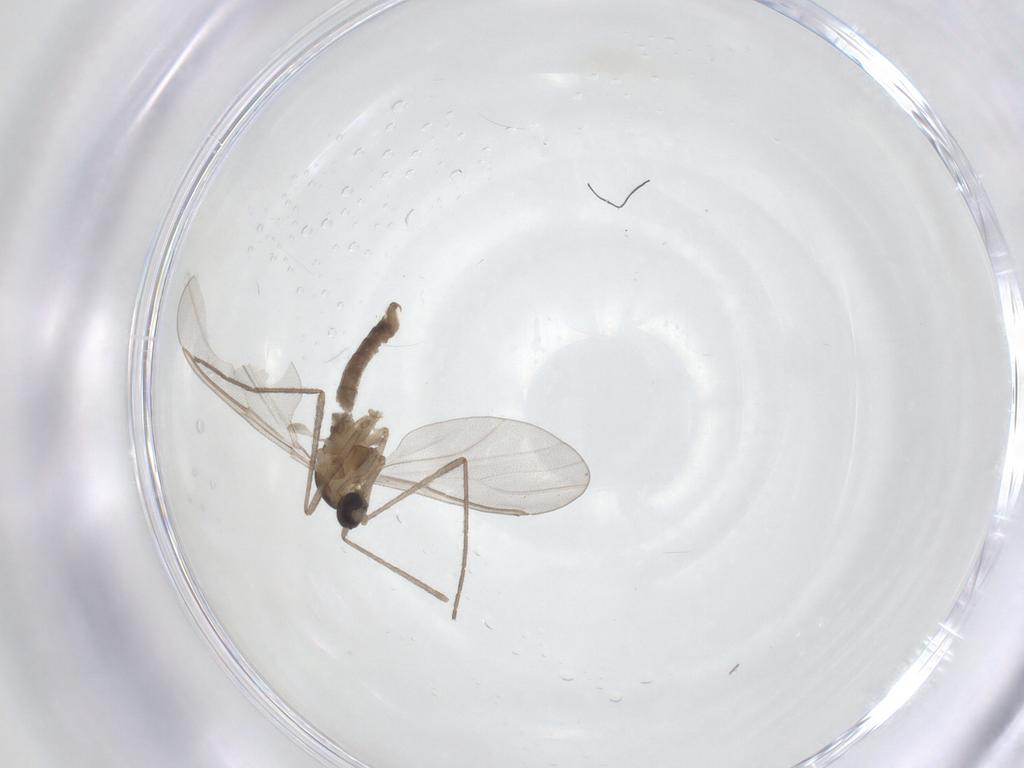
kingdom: Animalia
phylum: Arthropoda
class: Insecta
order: Diptera
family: Cecidomyiidae
